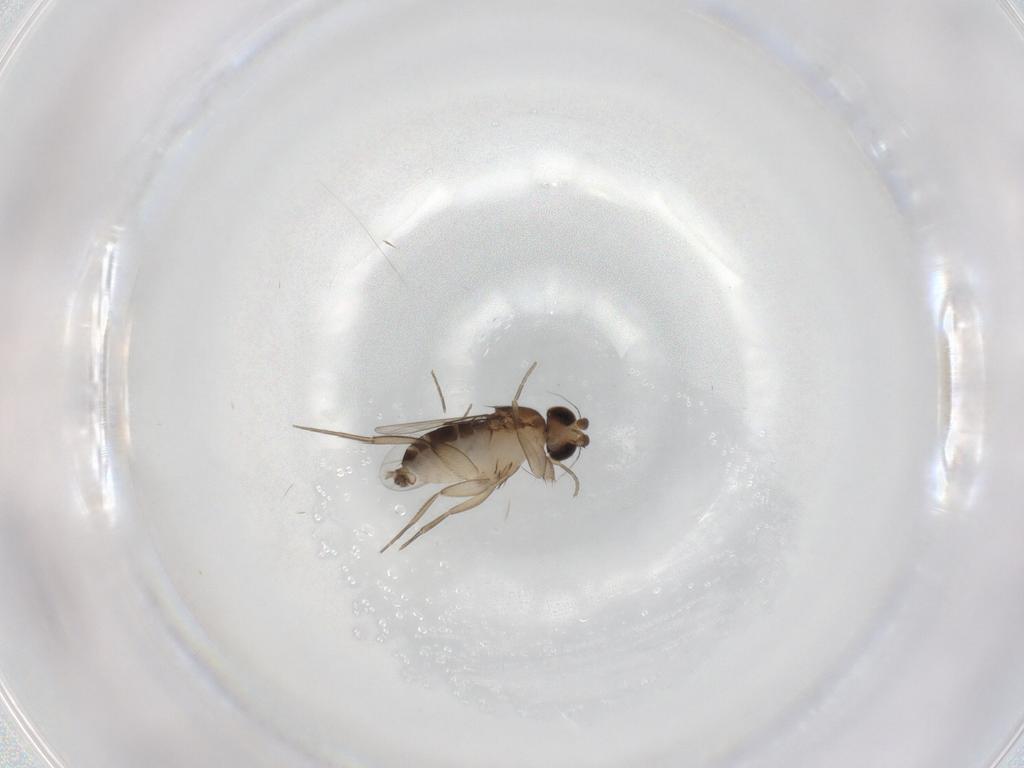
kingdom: Animalia
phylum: Arthropoda
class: Insecta
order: Diptera
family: Phoridae
